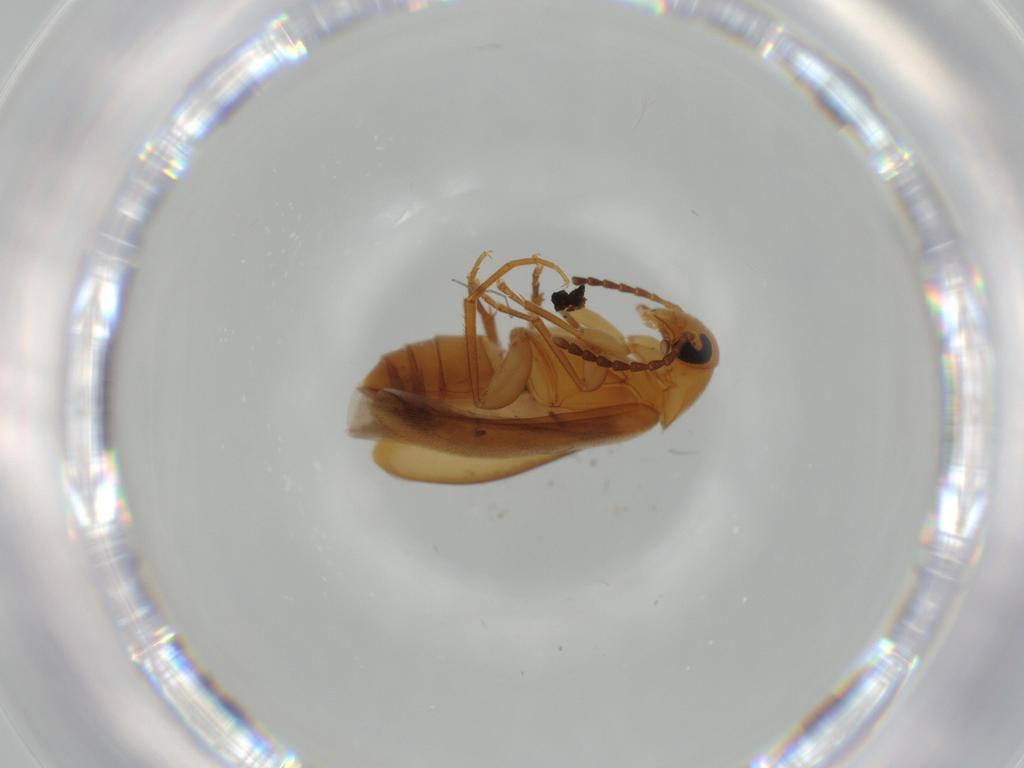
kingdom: Animalia
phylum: Arthropoda
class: Insecta
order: Coleoptera
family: Scraptiidae
